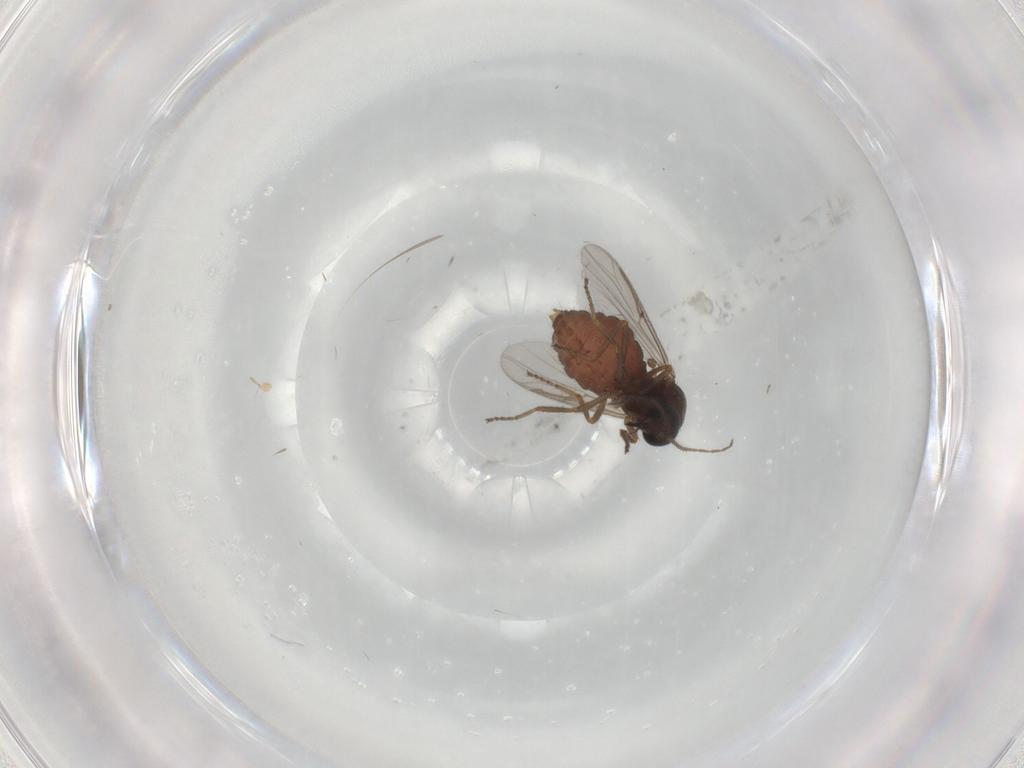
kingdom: Animalia
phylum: Arthropoda
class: Insecta
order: Diptera
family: Ceratopogonidae
